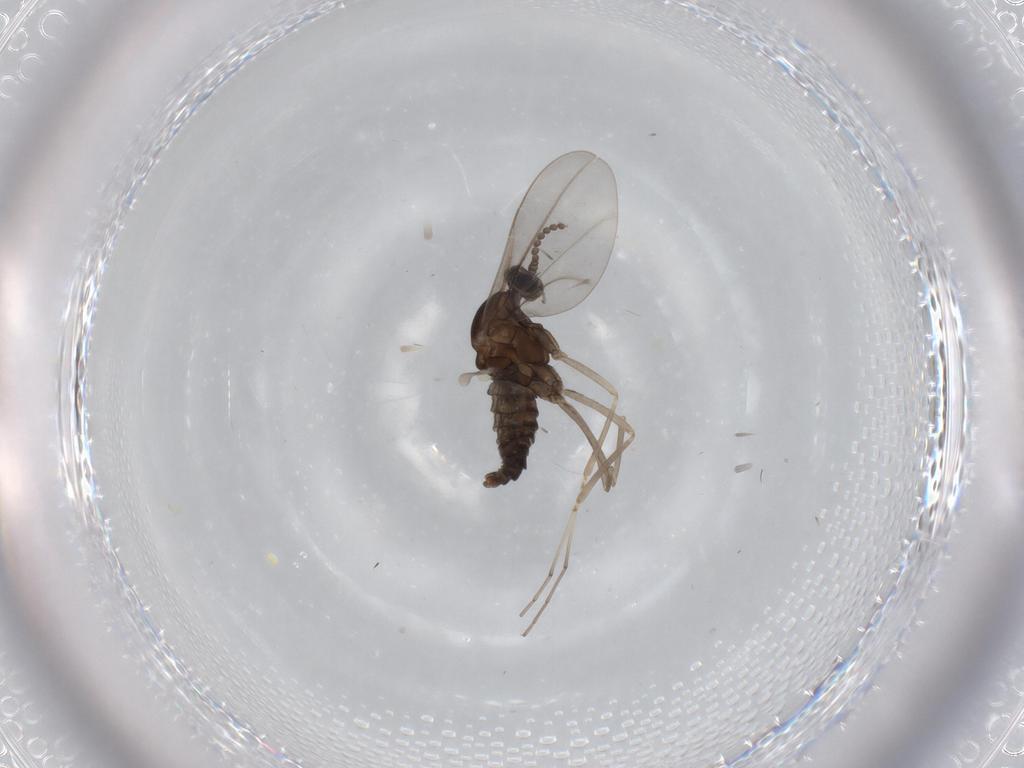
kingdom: Animalia
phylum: Arthropoda
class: Insecta
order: Diptera
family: Cecidomyiidae
